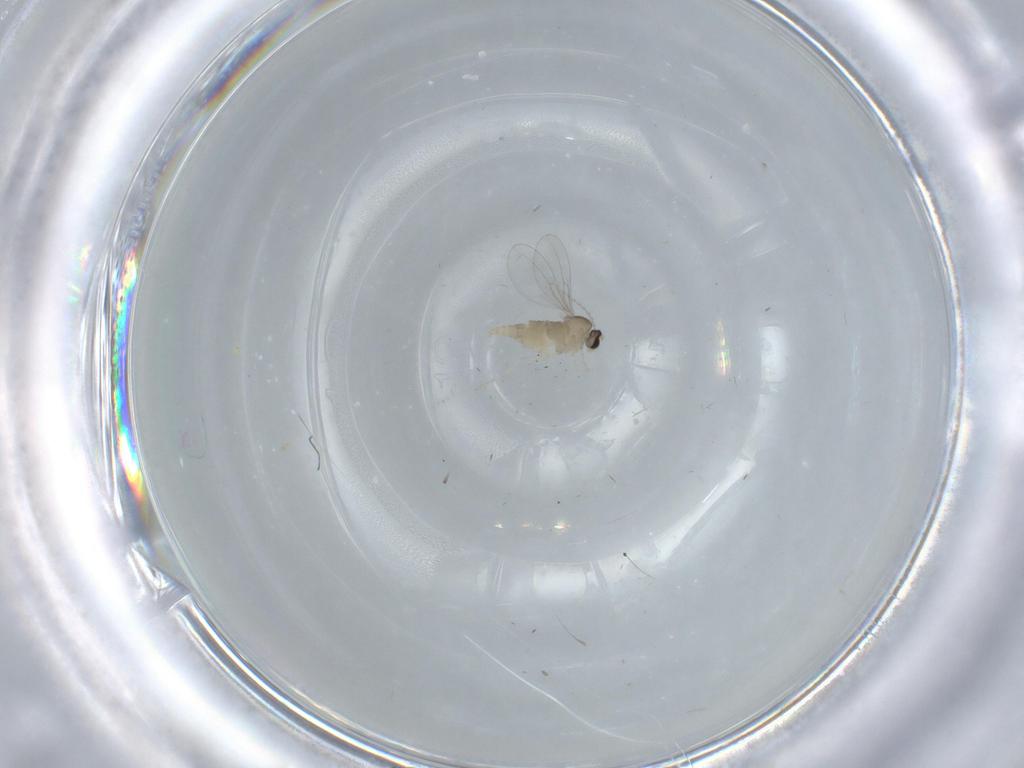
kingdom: Animalia
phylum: Arthropoda
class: Insecta
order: Diptera
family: Cecidomyiidae
